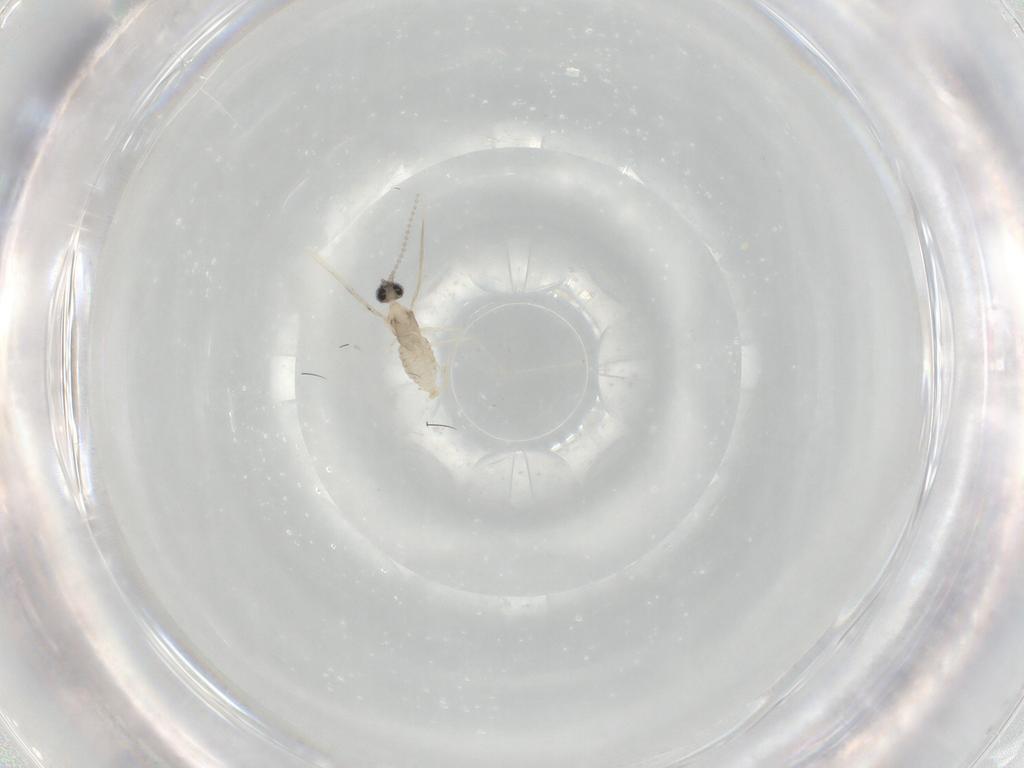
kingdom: Animalia
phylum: Arthropoda
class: Insecta
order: Diptera
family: Cecidomyiidae
